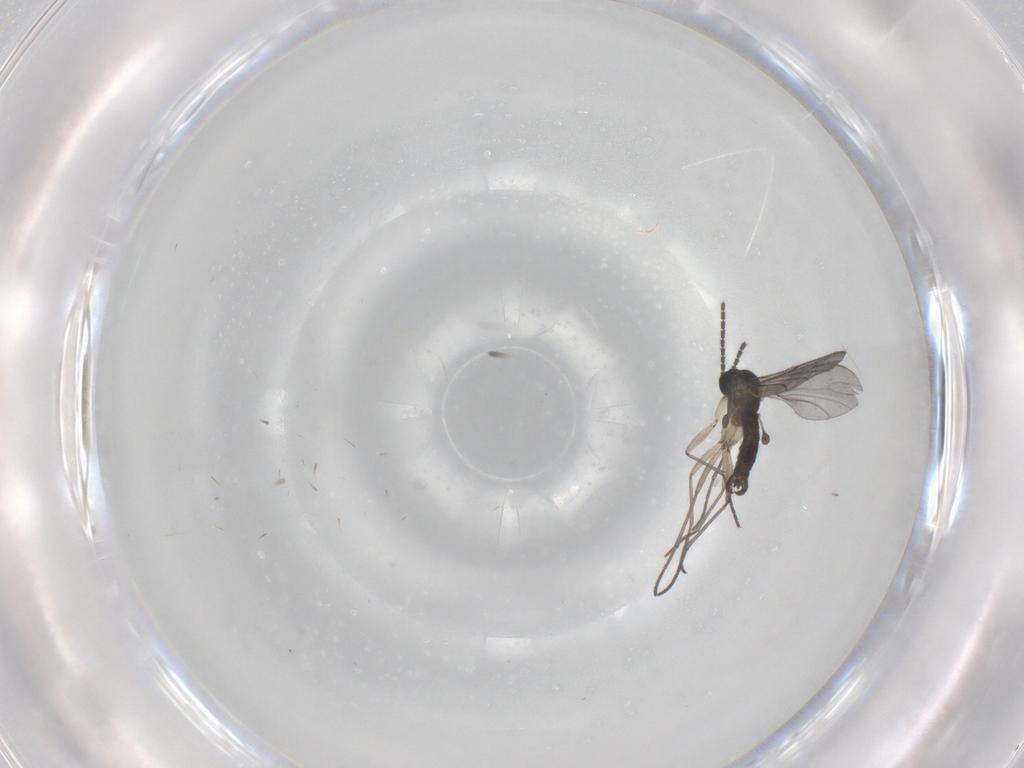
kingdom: Animalia
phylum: Arthropoda
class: Insecta
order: Diptera
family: Sciaridae
